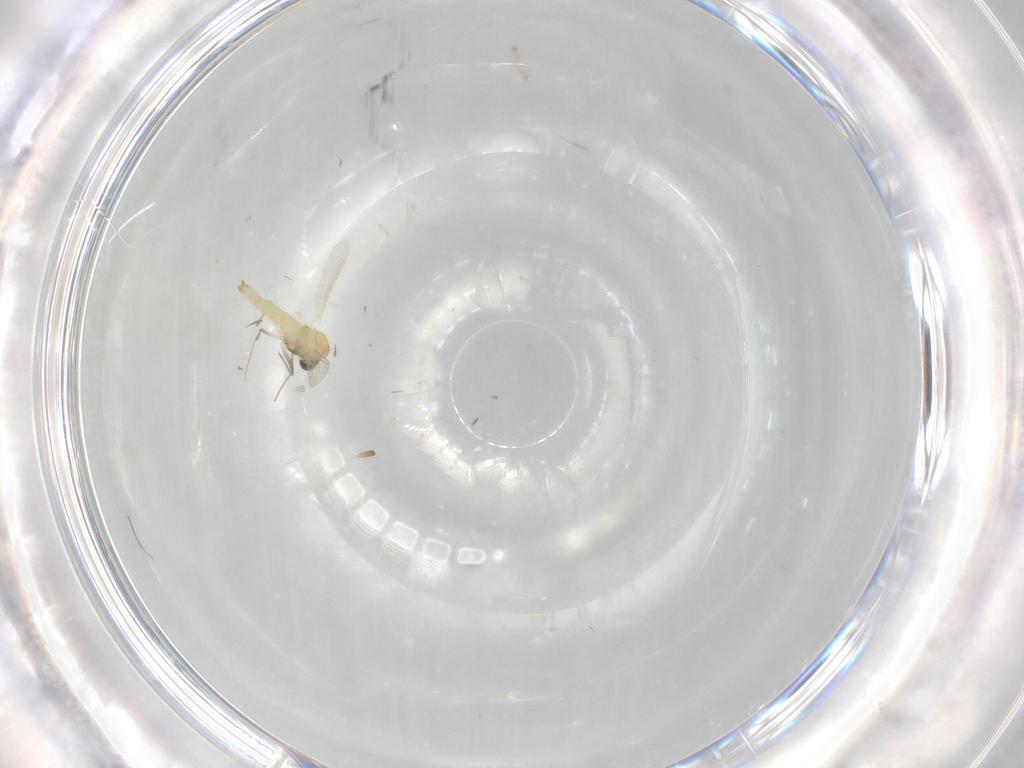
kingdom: Animalia
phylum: Arthropoda
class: Insecta
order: Diptera
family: Chironomidae
